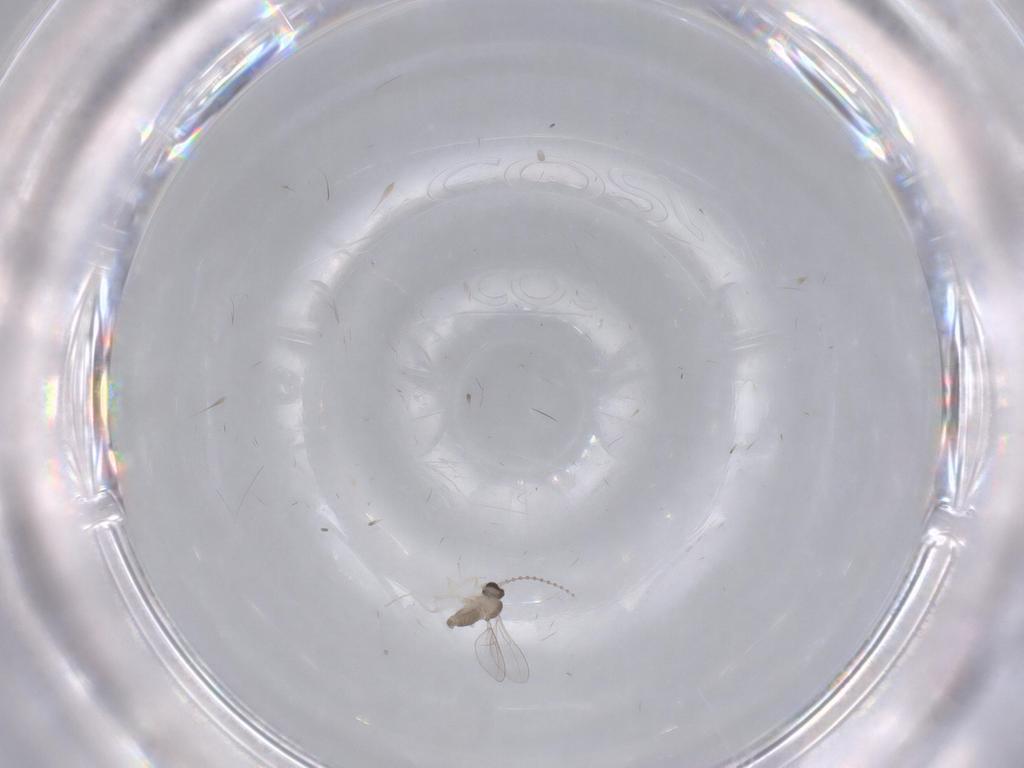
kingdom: Animalia
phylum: Arthropoda
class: Insecta
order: Diptera
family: Cecidomyiidae
